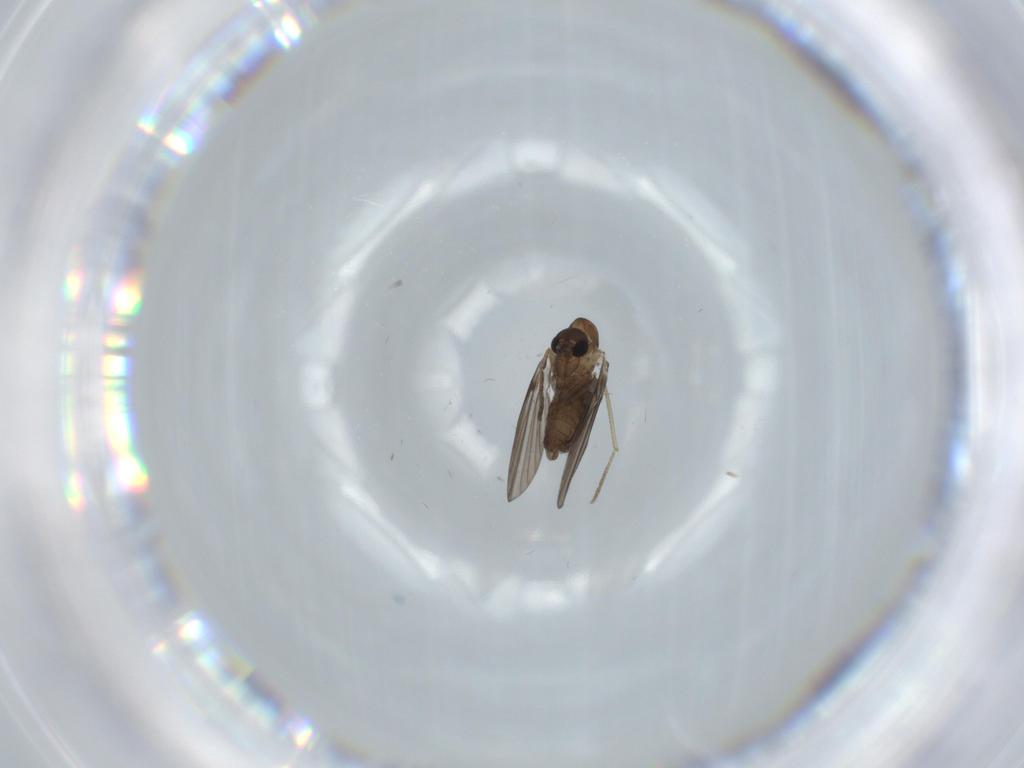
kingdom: Animalia
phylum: Arthropoda
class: Insecta
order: Diptera
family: Psychodidae
